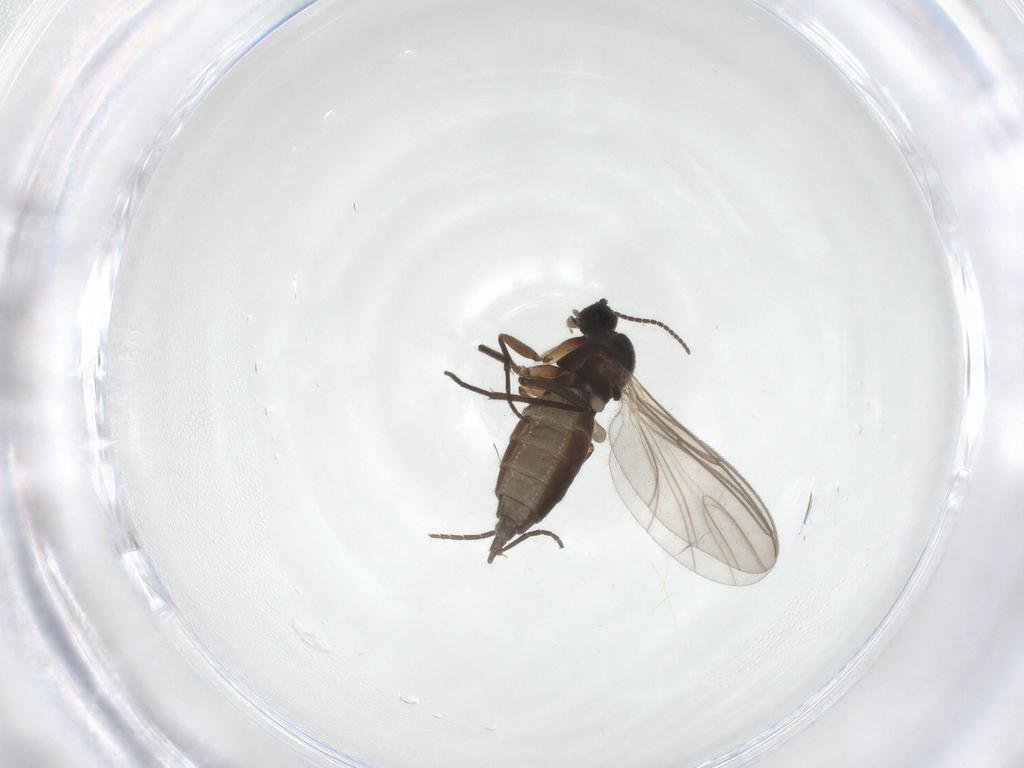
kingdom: Animalia
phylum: Arthropoda
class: Insecta
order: Diptera
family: Sciaridae
